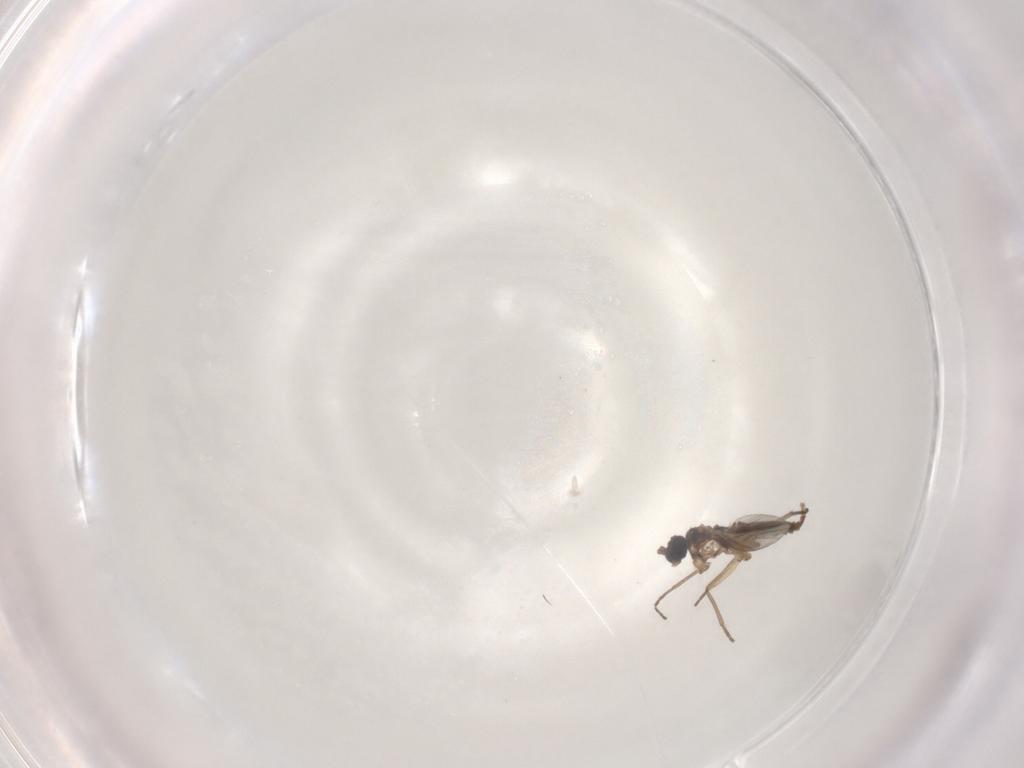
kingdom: Animalia
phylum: Arthropoda
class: Insecta
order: Diptera
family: Sciaridae
